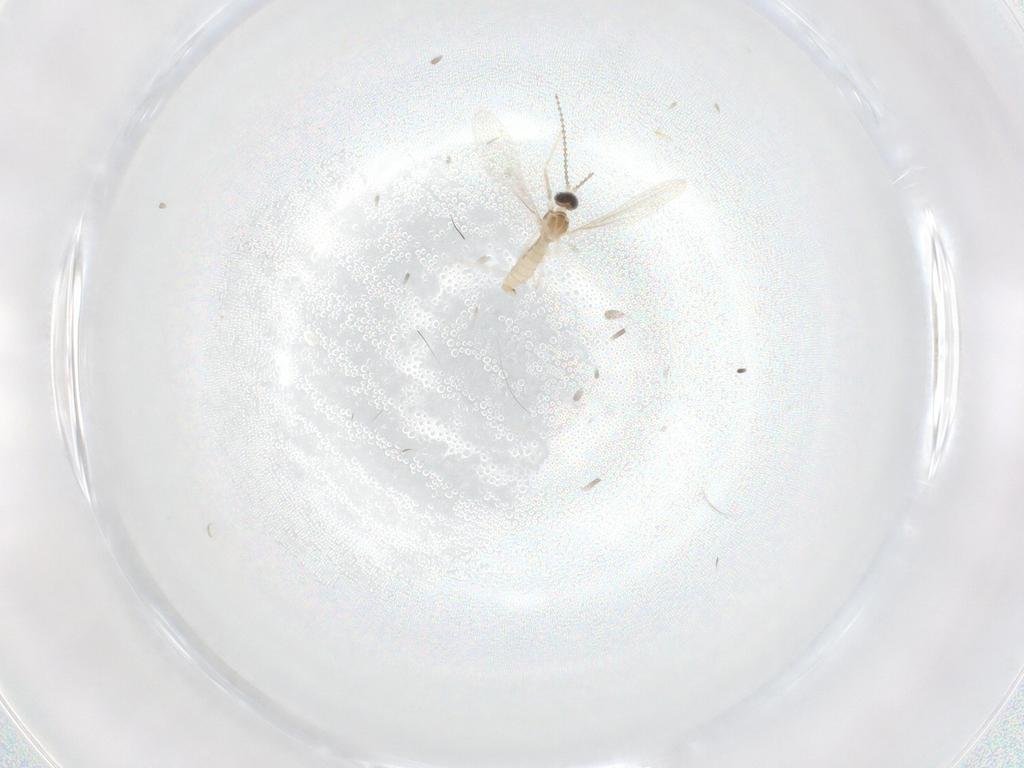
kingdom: Animalia
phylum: Arthropoda
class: Insecta
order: Diptera
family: Cecidomyiidae
